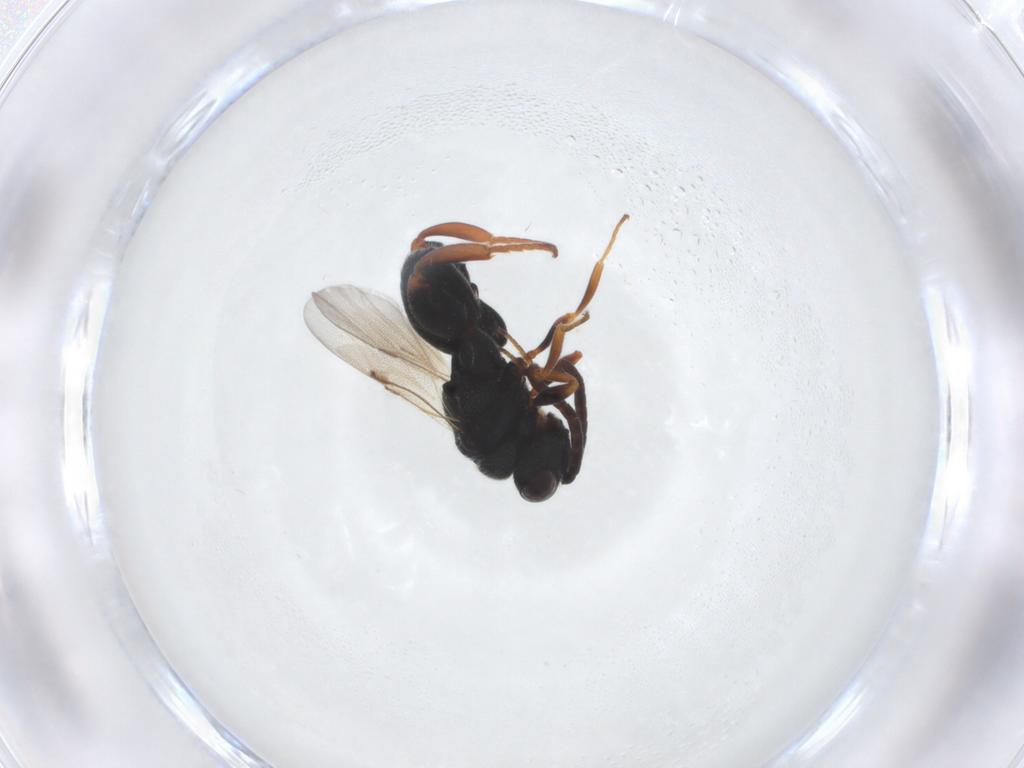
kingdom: Animalia
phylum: Arthropoda
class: Insecta
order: Hymenoptera
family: Chalcididae
